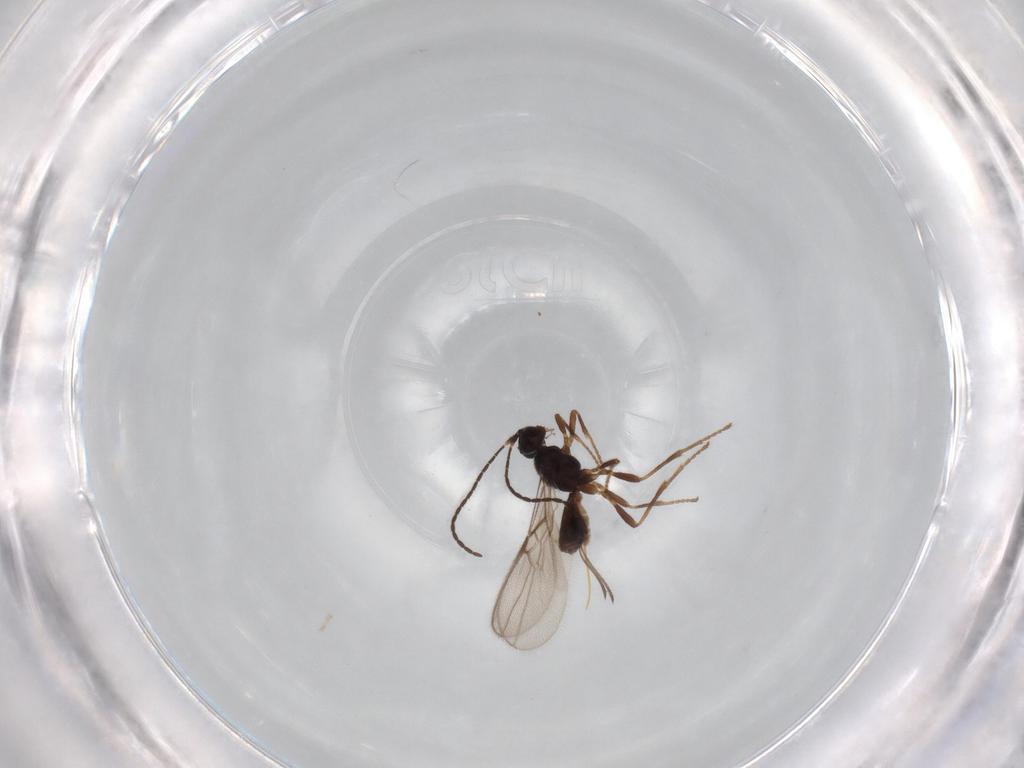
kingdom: Animalia
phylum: Arthropoda
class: Insecta
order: Hymenoptera
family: Braconidae
